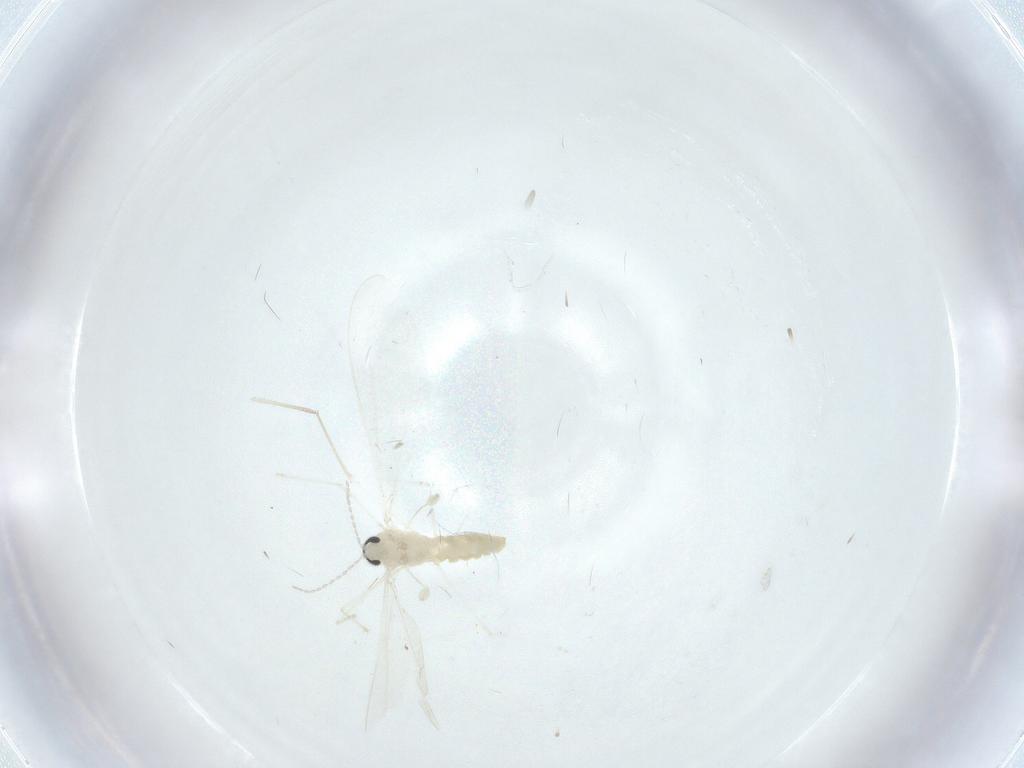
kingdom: Animalia
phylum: Arthropoda
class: Insecta
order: Diptera
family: Cecidomyiidae
